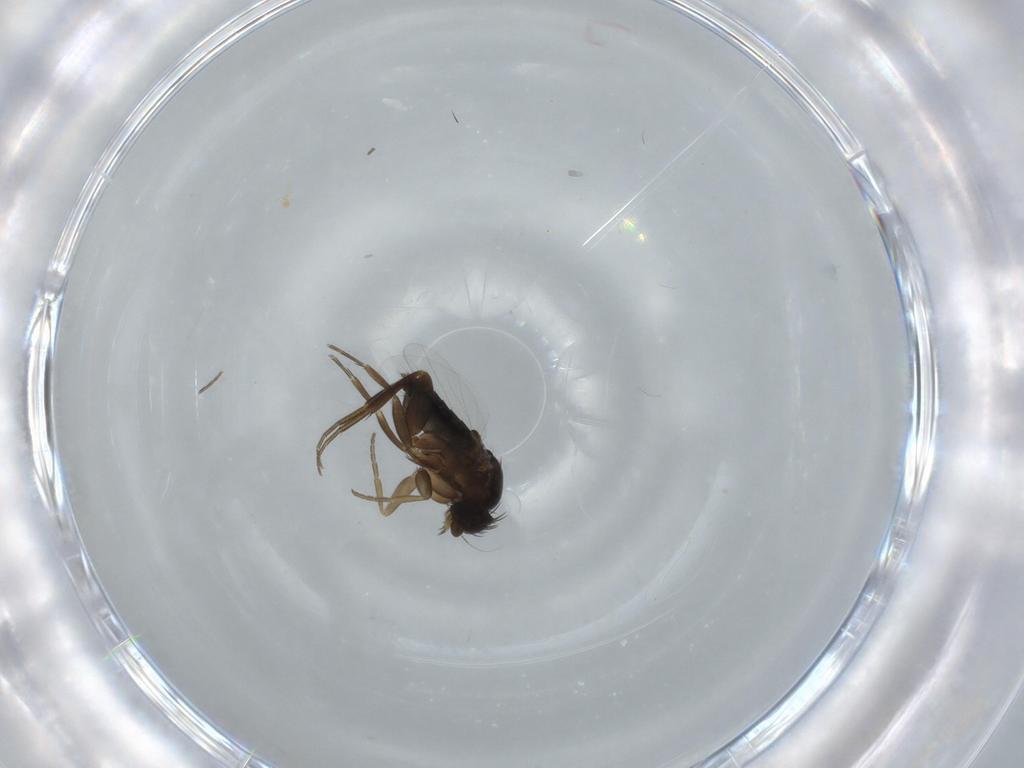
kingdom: Animalia
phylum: Arthropoda
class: Insecta
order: Diptera
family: Phoridae
